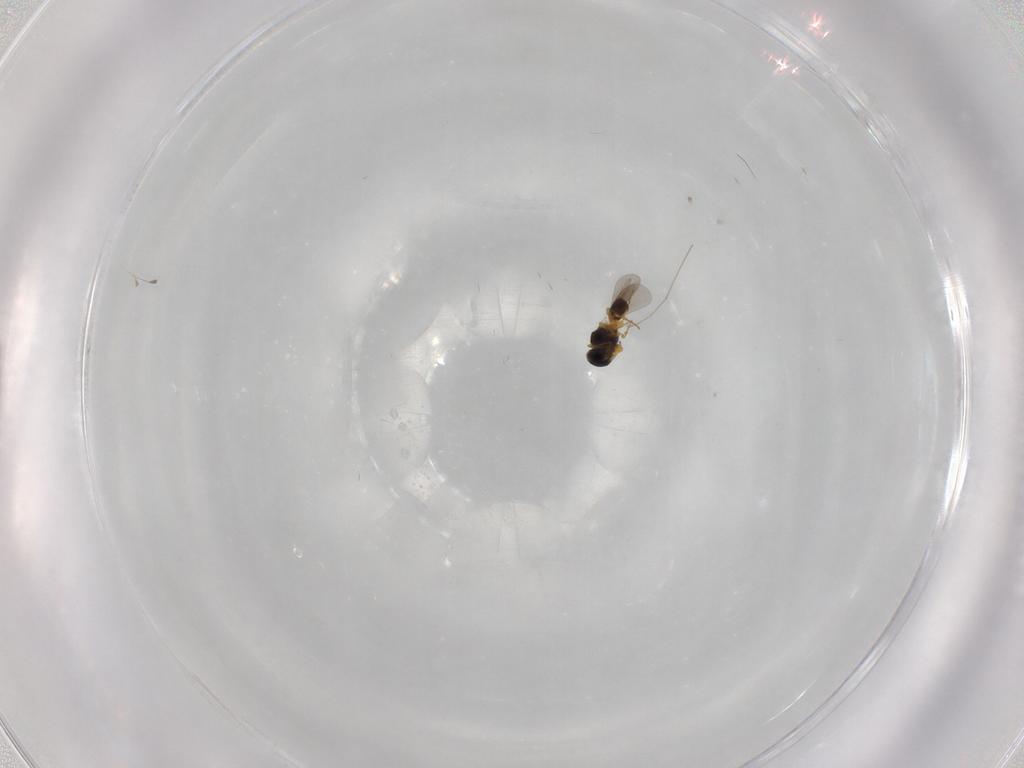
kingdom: Animalia
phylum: Arthropoda
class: Insecta
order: Hymenoptera
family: Platygastridae
